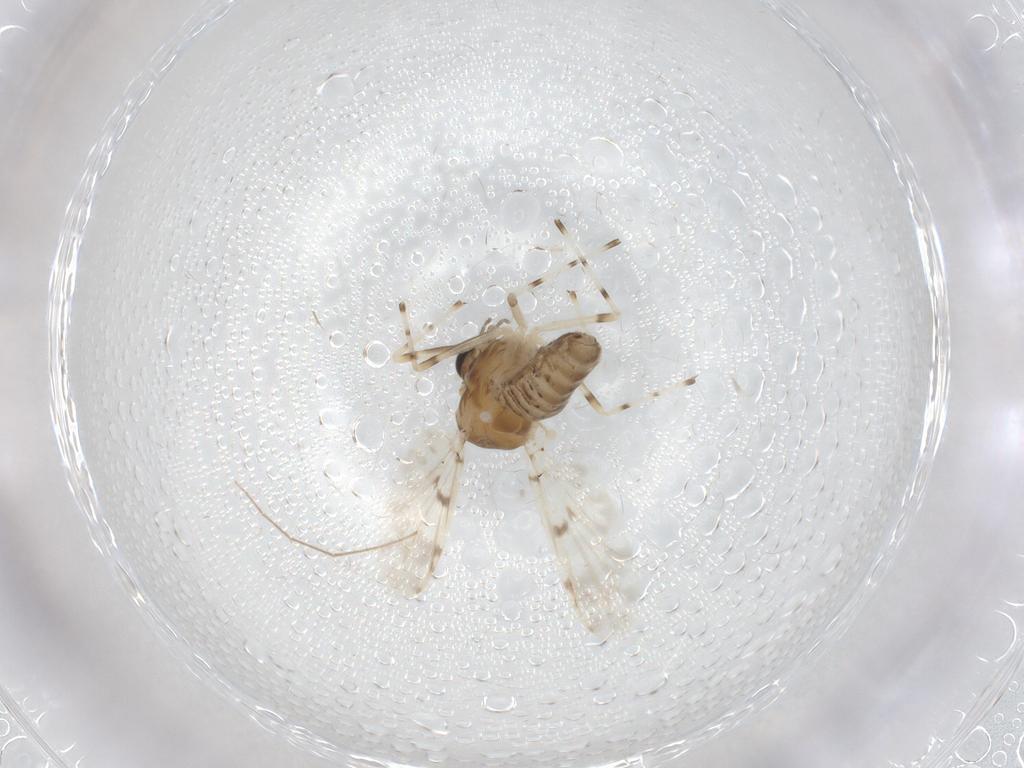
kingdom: Animalia
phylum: Arthropoda
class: Insecta
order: Diptera
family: Chironomidae
